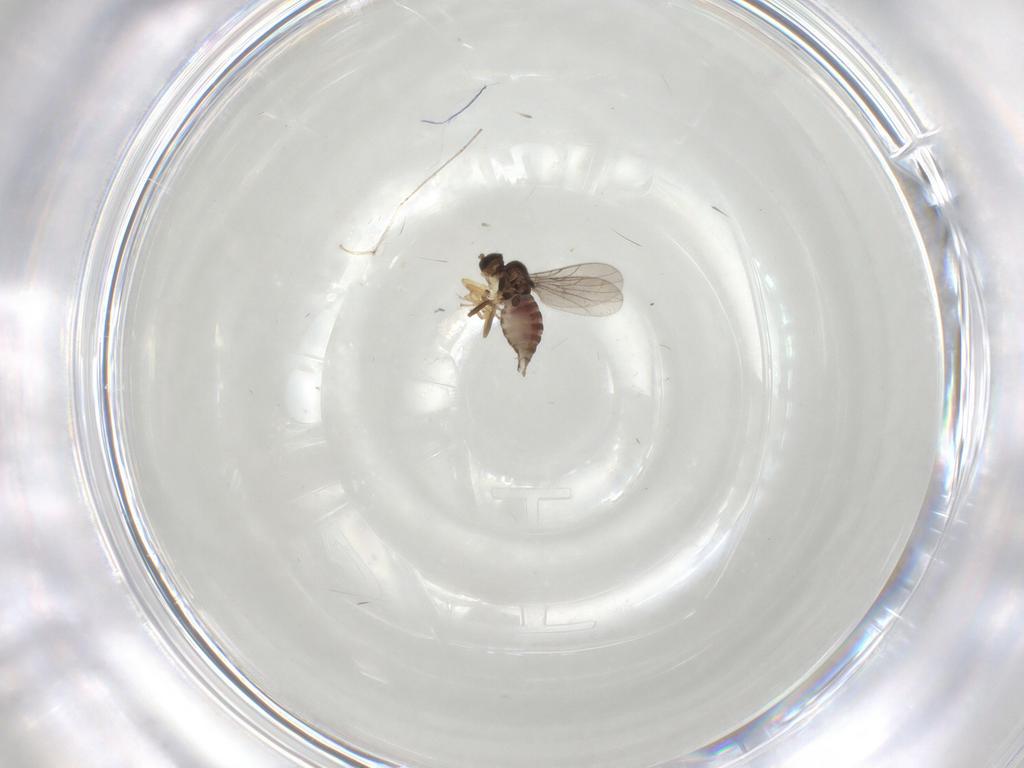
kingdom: Animalia
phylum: Arthropoda
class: Insecta
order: Diptera
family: Hybotidae
